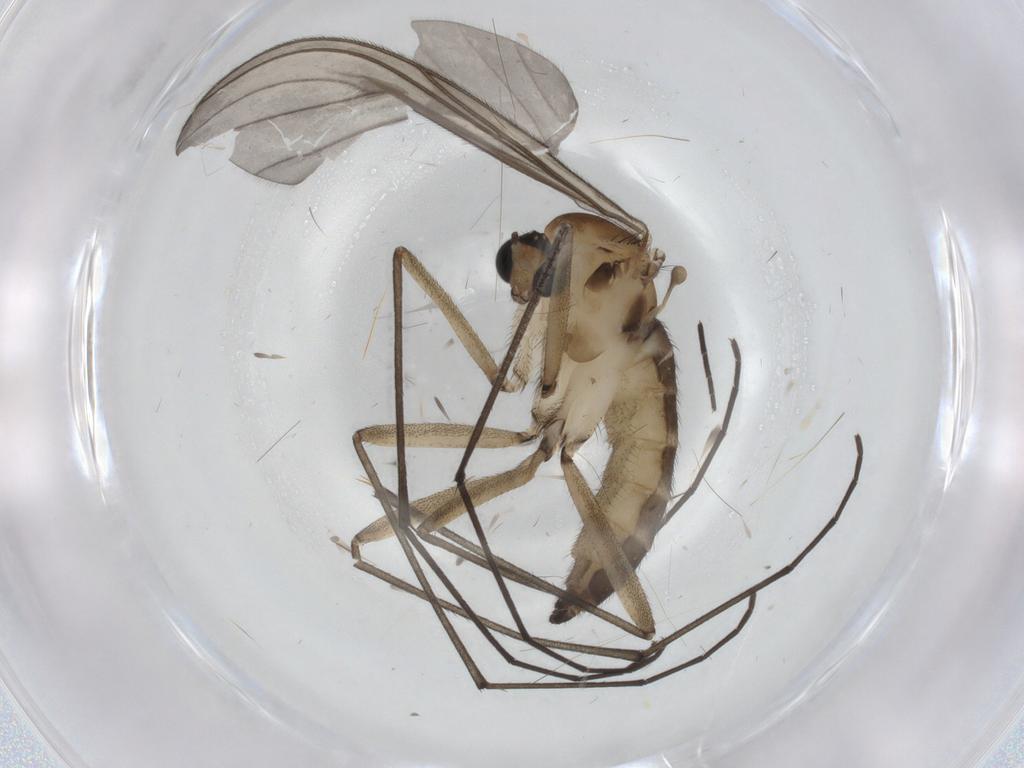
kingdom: Animalia
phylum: Arthropoda
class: Insecta
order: Diptera
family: Sciaridae
